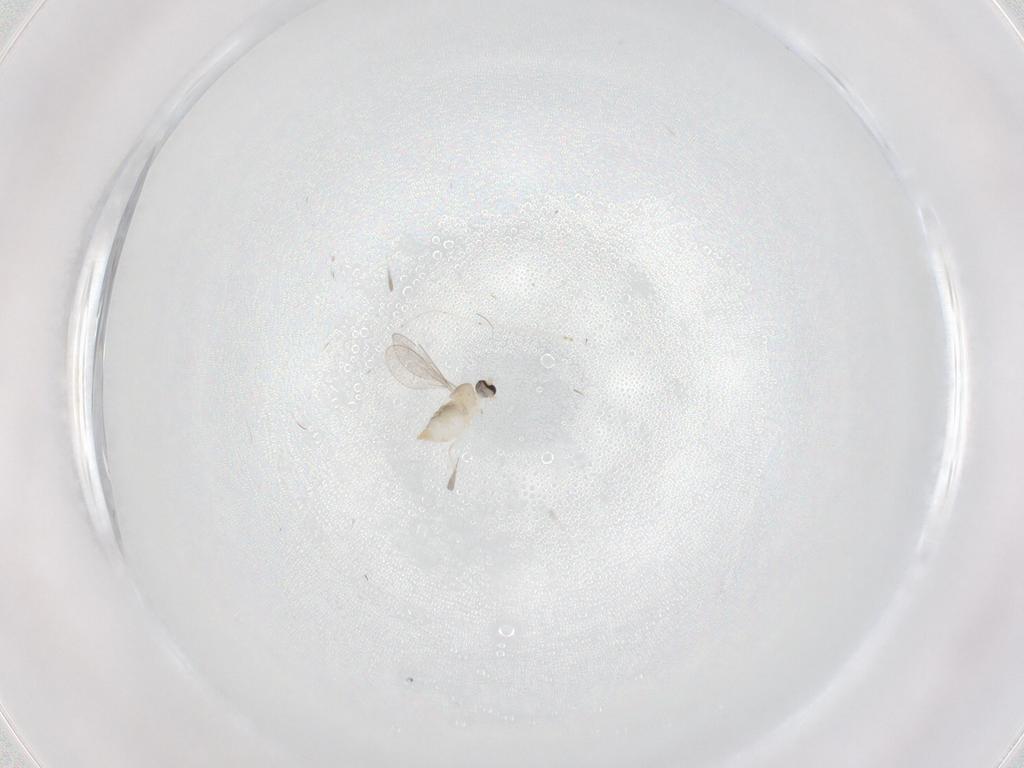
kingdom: Animalia
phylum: Arthropoda
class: Insecta
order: Diptera
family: Cecidomyiidae
